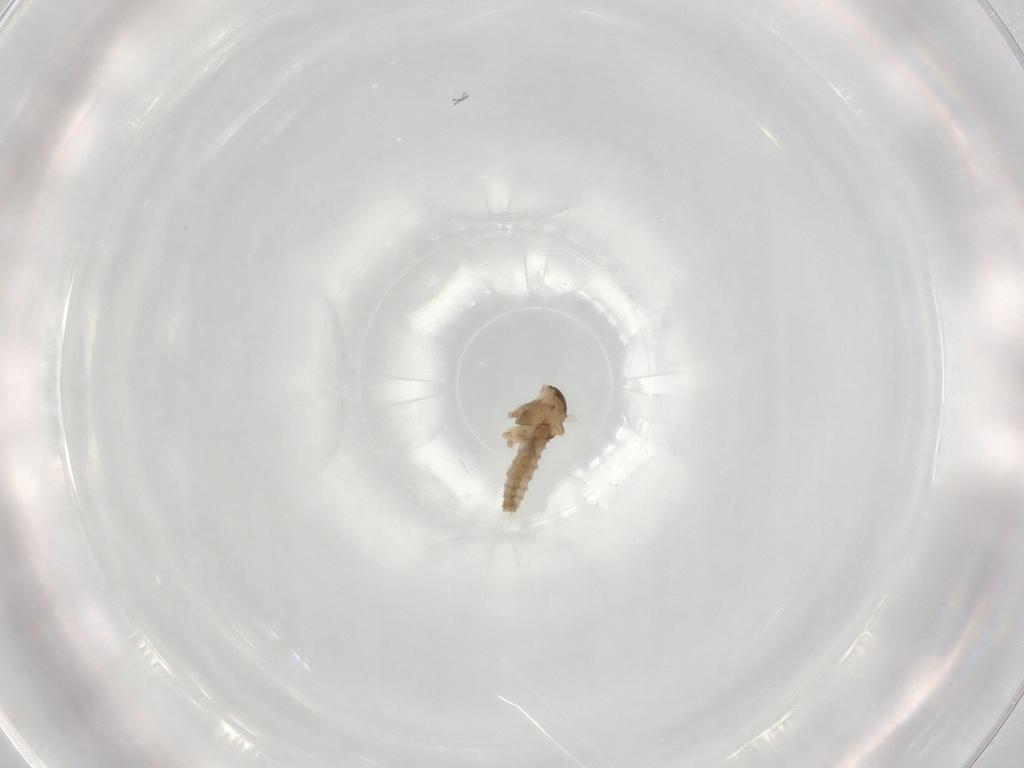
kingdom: Animalia
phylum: Arthropoda
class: Insecta
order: Diptera
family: Cecidomyiidae
